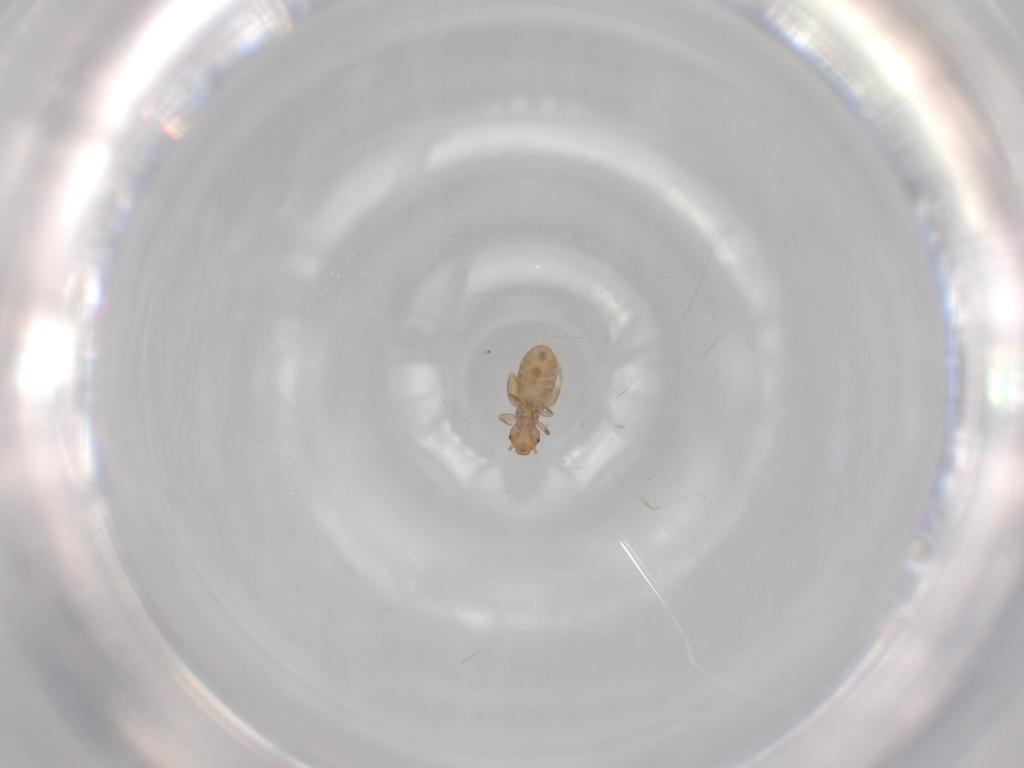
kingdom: Animalia
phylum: Arthropoda
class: Insecta
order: Psocodea
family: Liposcelididae
